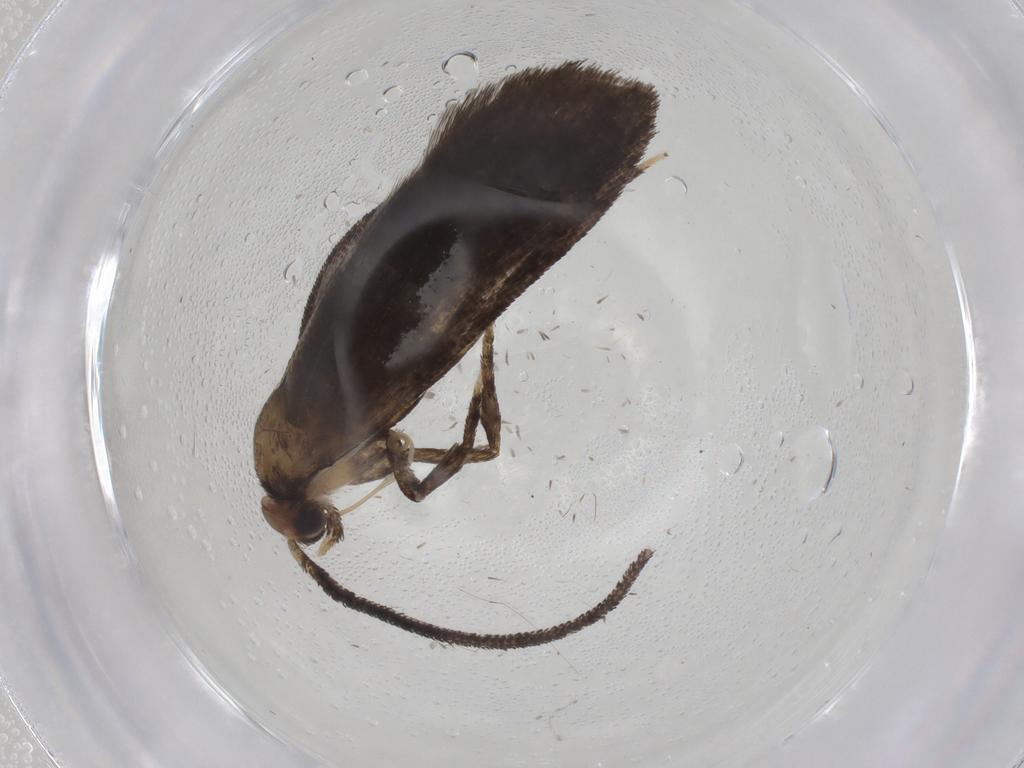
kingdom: Animalia
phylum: Arthropoda
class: Insecta
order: Lepidoptera
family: Choreutidae
